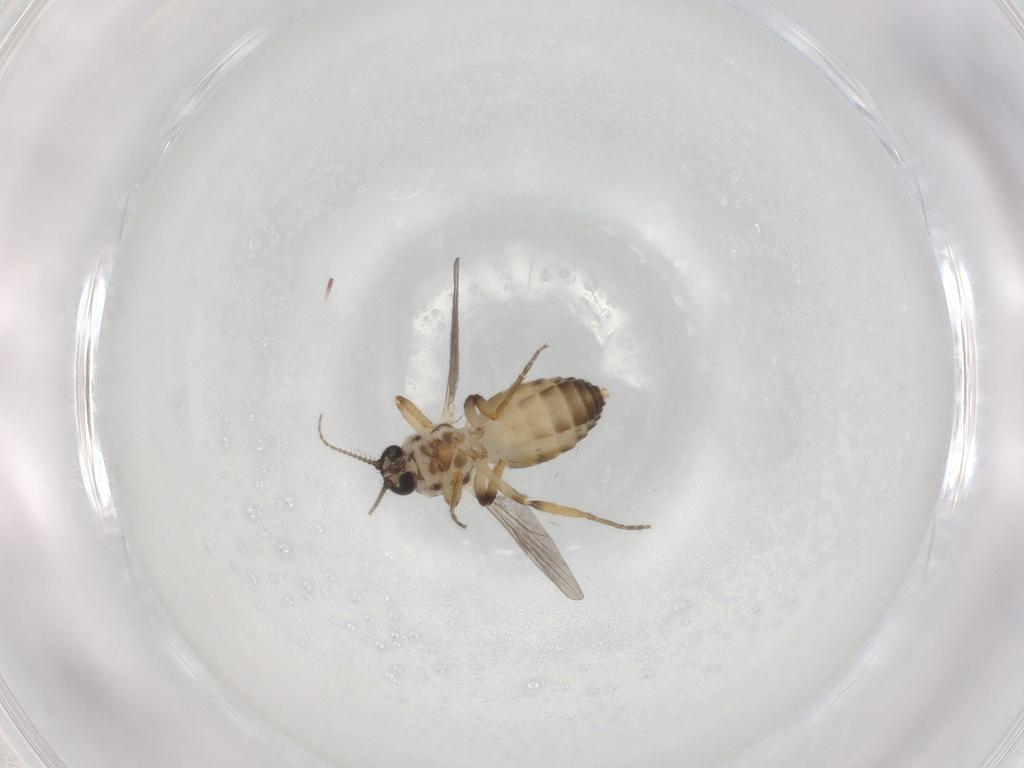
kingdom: Animalia
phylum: Arthropoda
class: Insecta
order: Diptera
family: Ceratopogonidae
